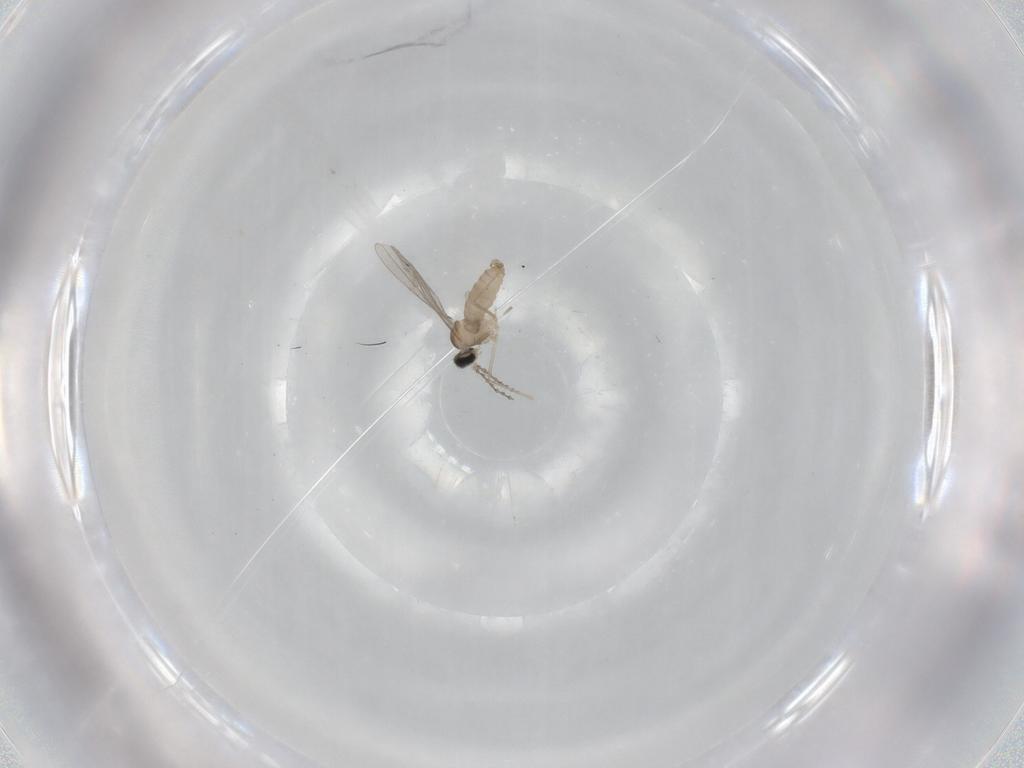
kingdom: Animalia
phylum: Arthropoda
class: Insecta
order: Diptera
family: Cecidomyiidae
